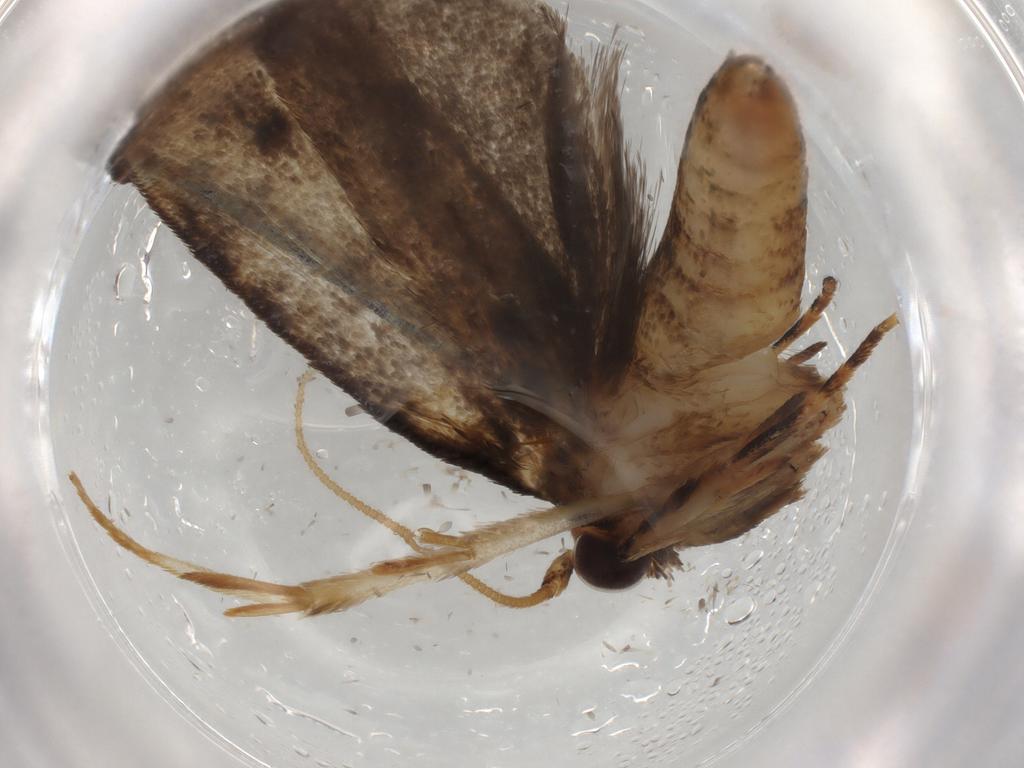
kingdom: Animalia
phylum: Arthropoda
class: Insecta
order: Lepidoptera
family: Tineidae
